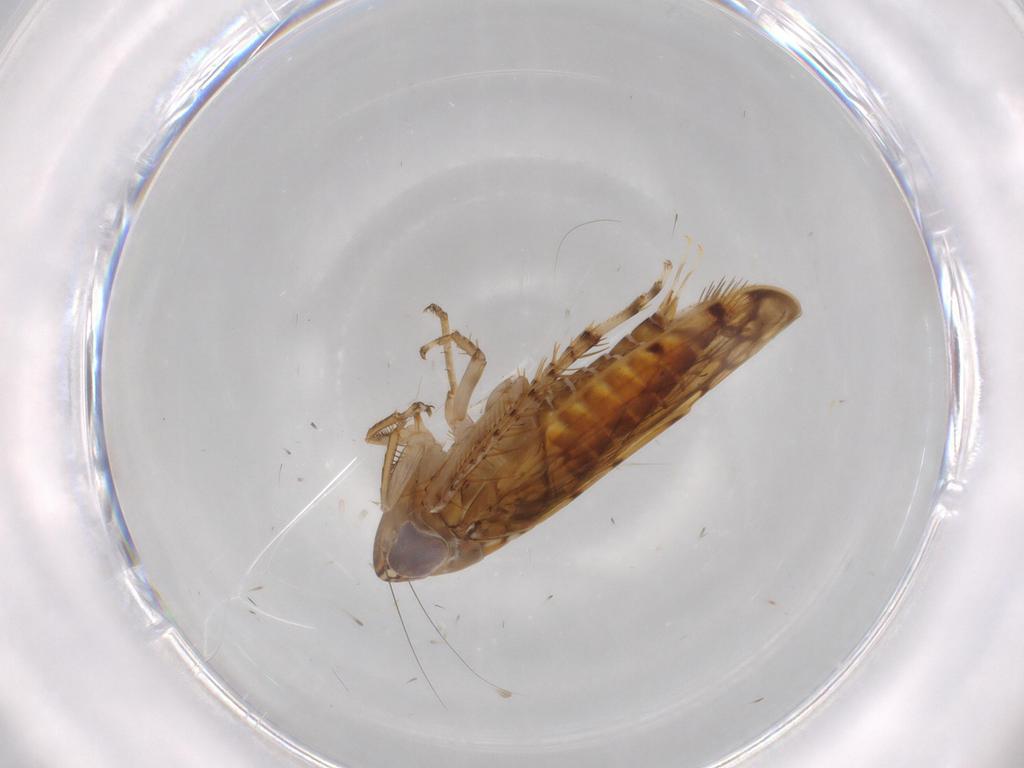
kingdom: Animalia
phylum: Arthropoda
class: Insecta
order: Hemiptera
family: Cicadellidae
